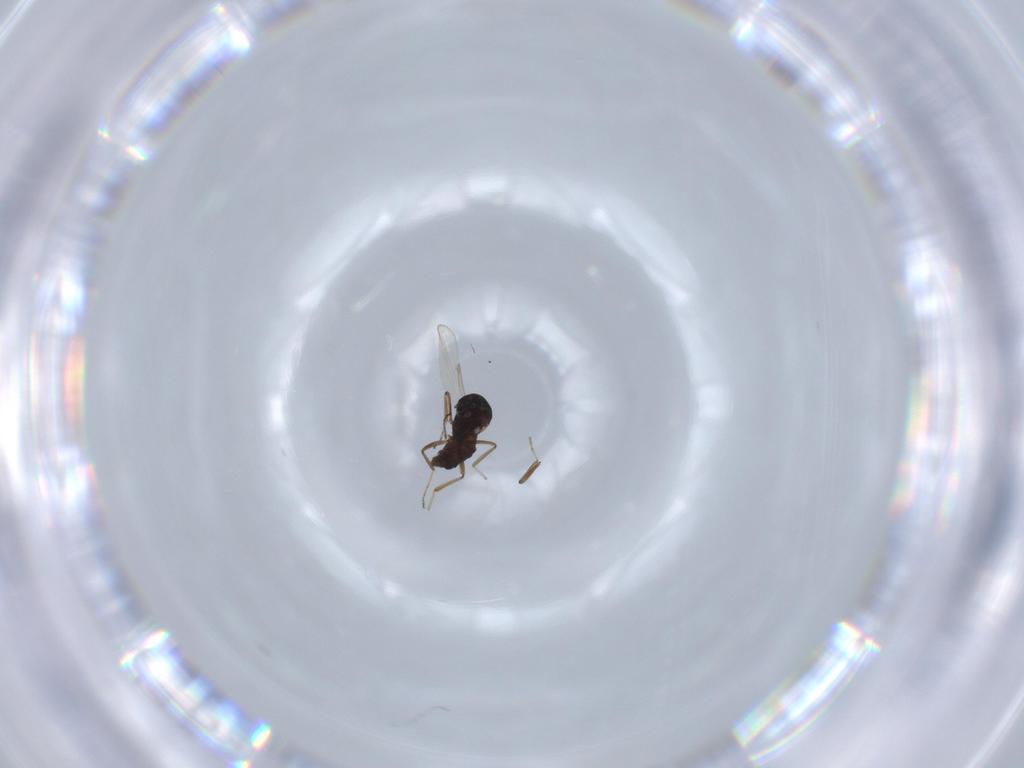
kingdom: Animalia
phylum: Arthropoda
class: Insecta
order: Diptera
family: Ceratopogonidae
